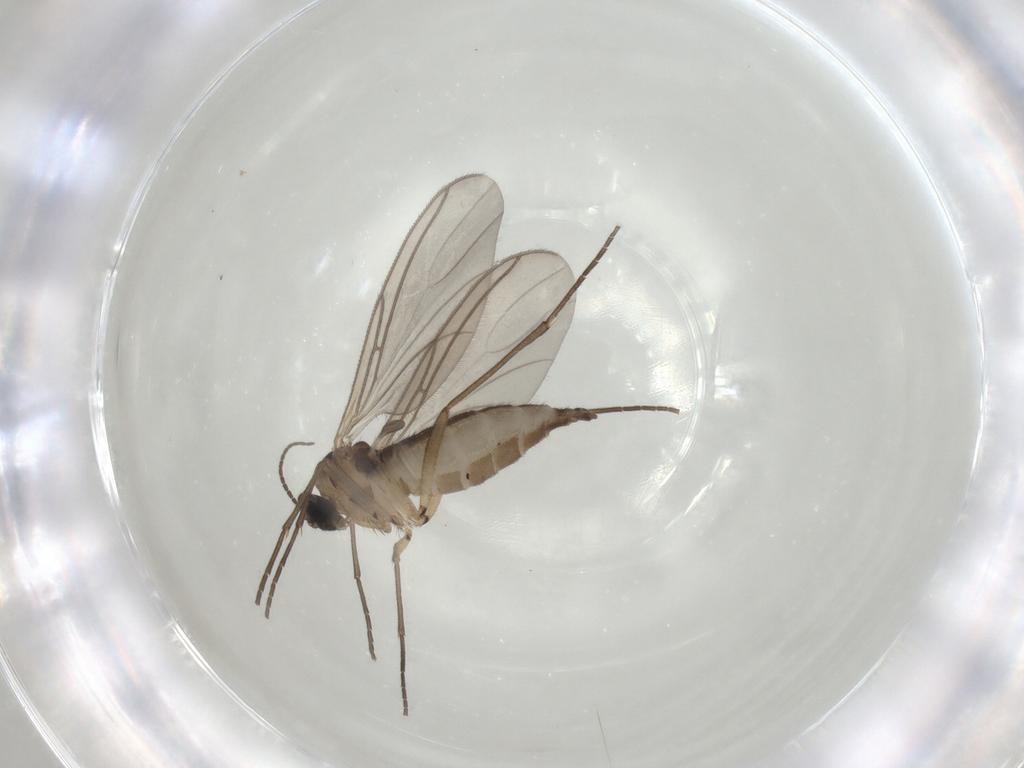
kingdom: Animalia
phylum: Arthropoda
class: Insecta
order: Diptera
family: Sciaridae
